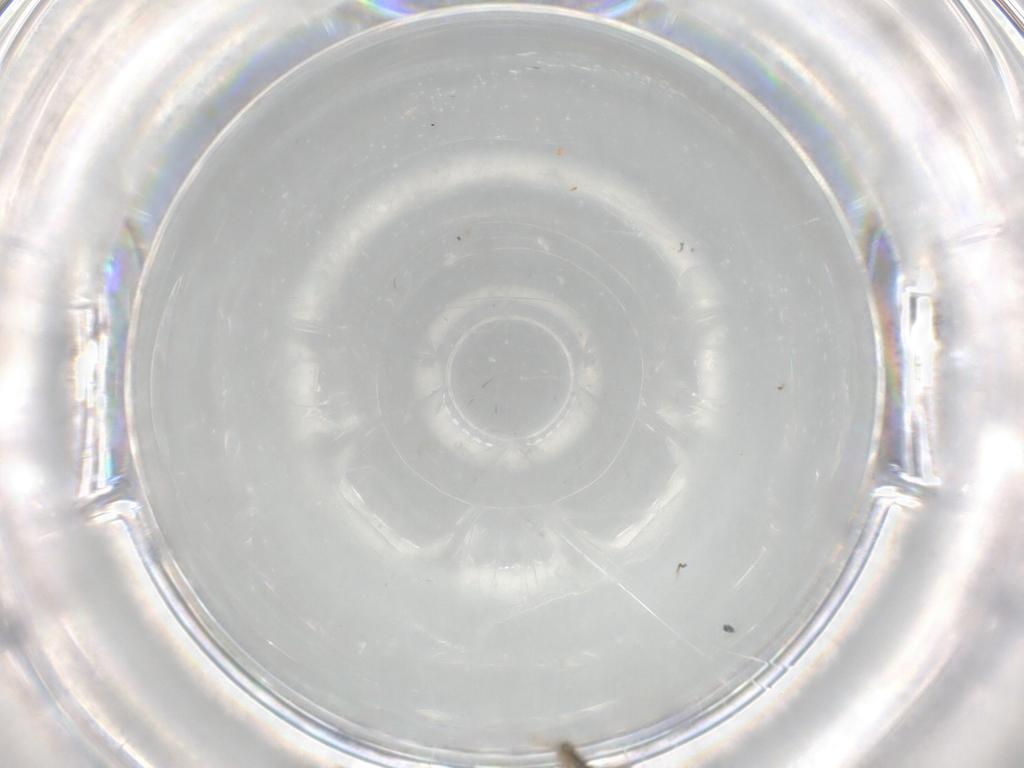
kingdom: Animalia
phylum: Arthropoda
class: Insecta
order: Diptera
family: Chironomidae
